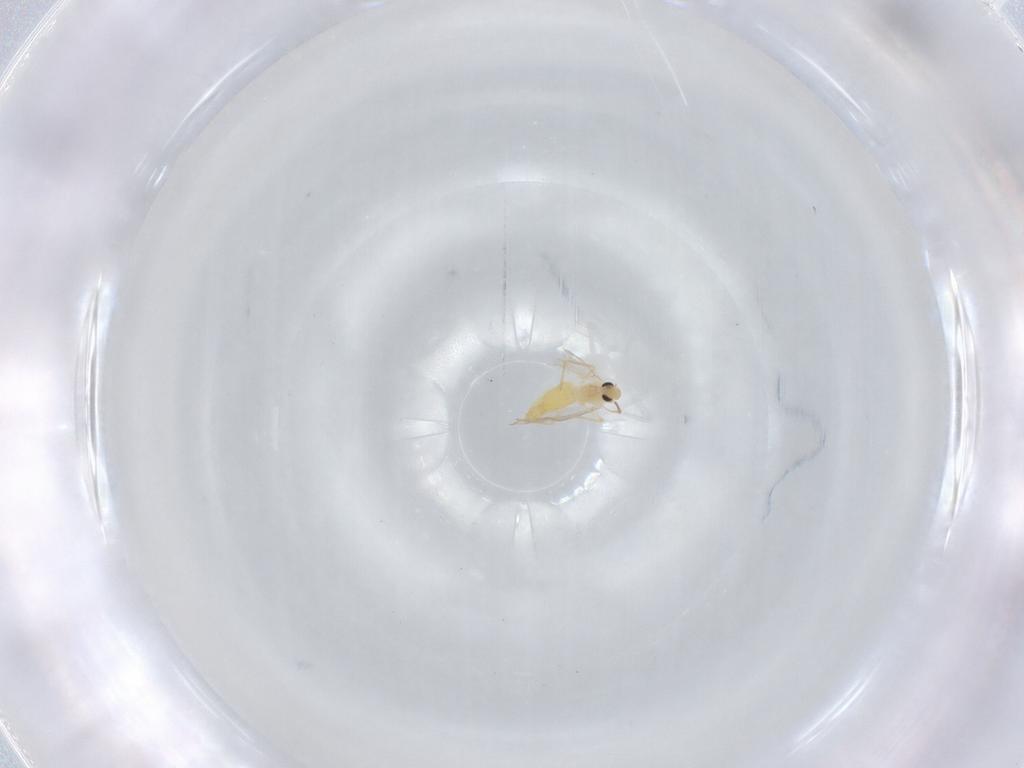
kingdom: Animalia
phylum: Arthropoda
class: Insecta
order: Diptera
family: Chironomidae
